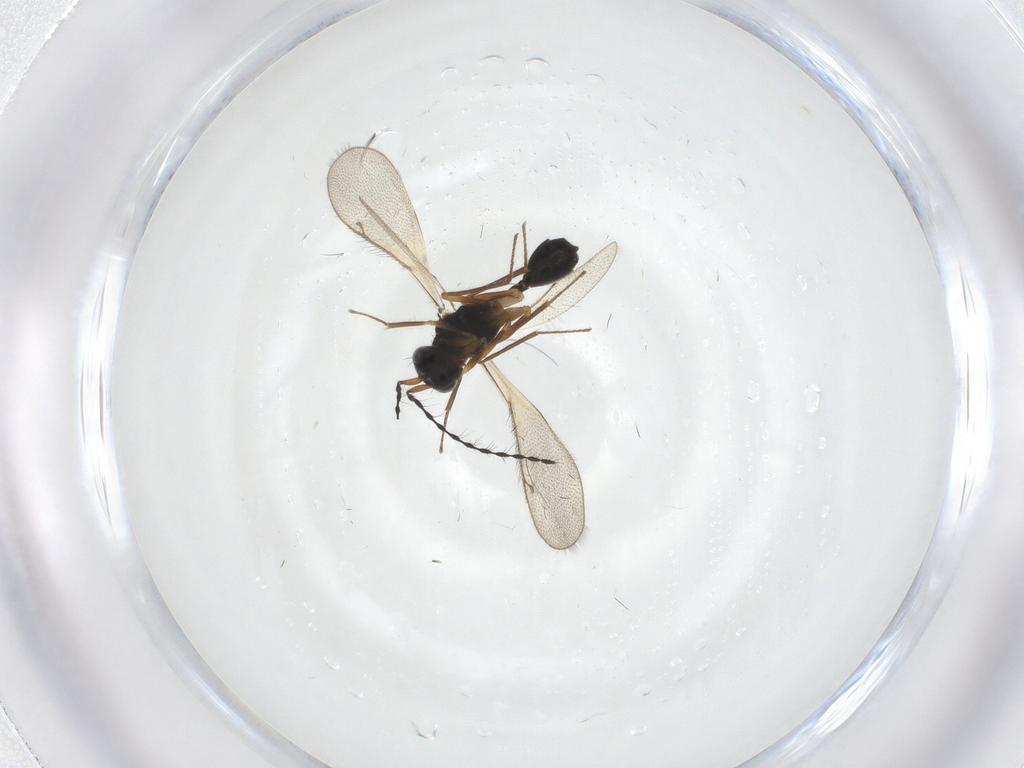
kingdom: Animalia
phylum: Arthropoda
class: Insecta
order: Hymenoptera
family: Diparidae
